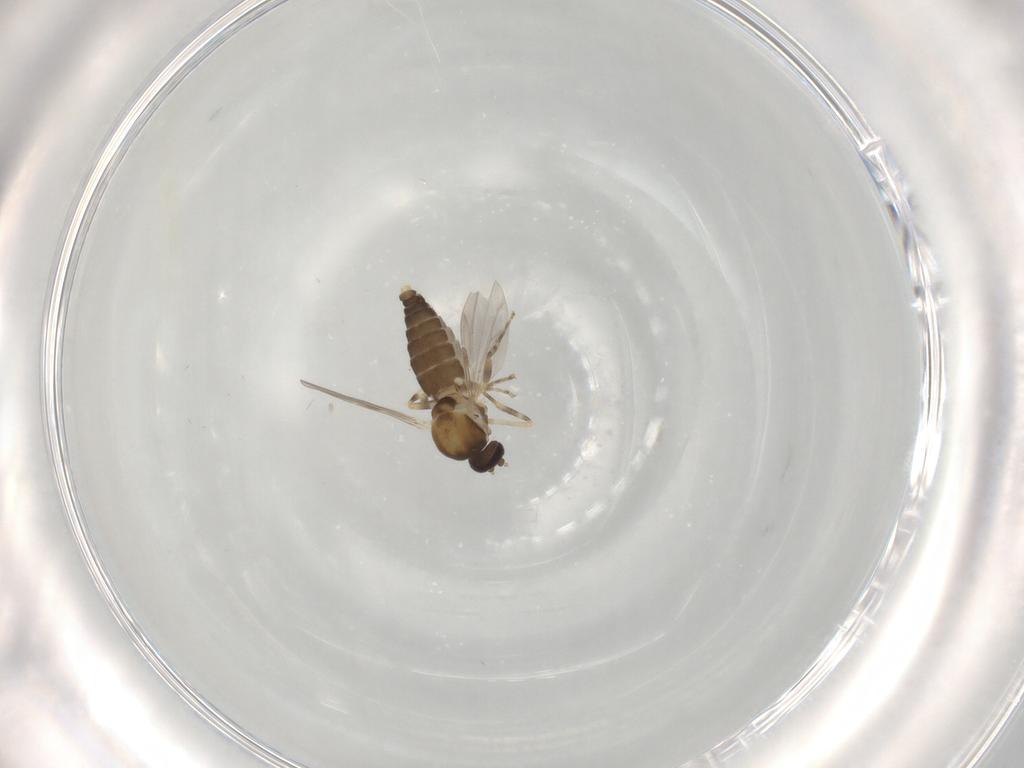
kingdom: Animalia
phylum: Arthropoda
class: Insecta
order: Diptera
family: Ceratopogonidae
